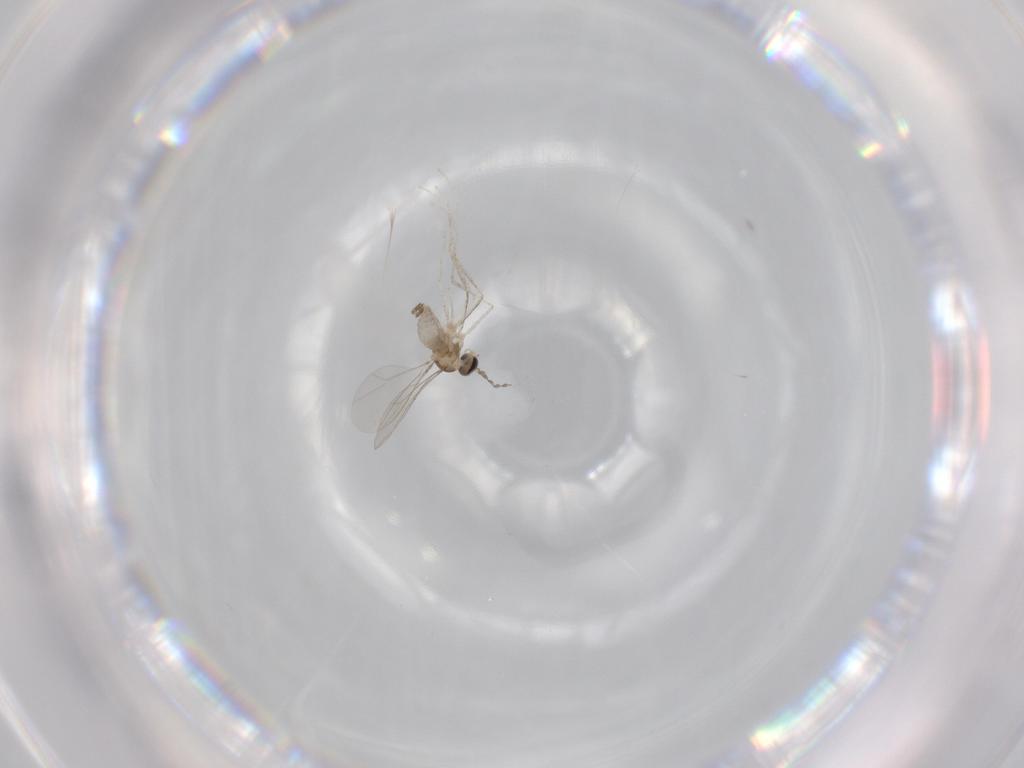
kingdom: Animalia
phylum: Arthropoda
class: Insecta
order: Diptera
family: Cecidomyiidae
